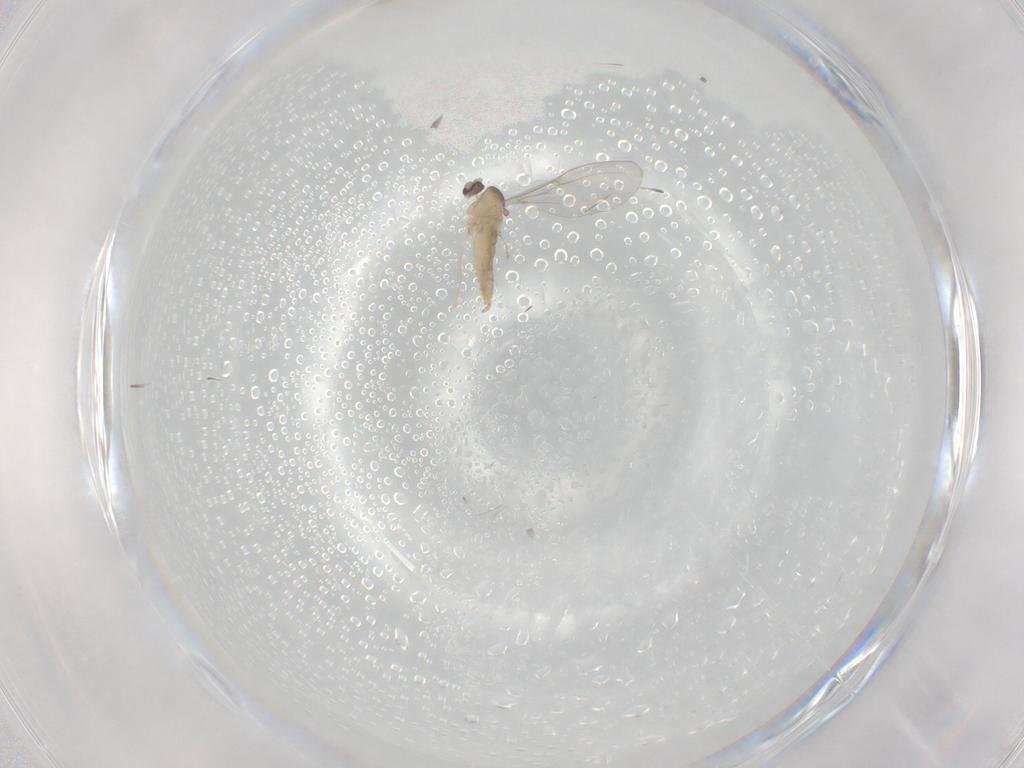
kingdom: Animalia
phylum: Arthropoda
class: Insecta
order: Diptera
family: Cecidomyiidae
